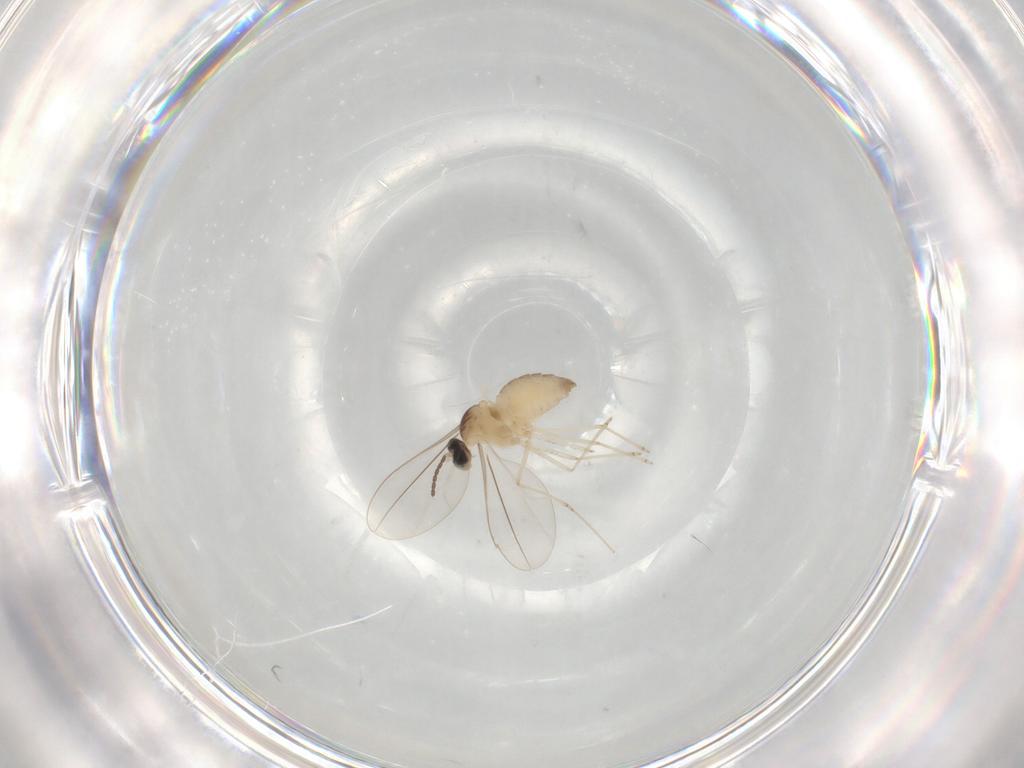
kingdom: Animalia
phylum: Arthropoda
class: Insecta
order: Diptera
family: Cecidomyiidae
